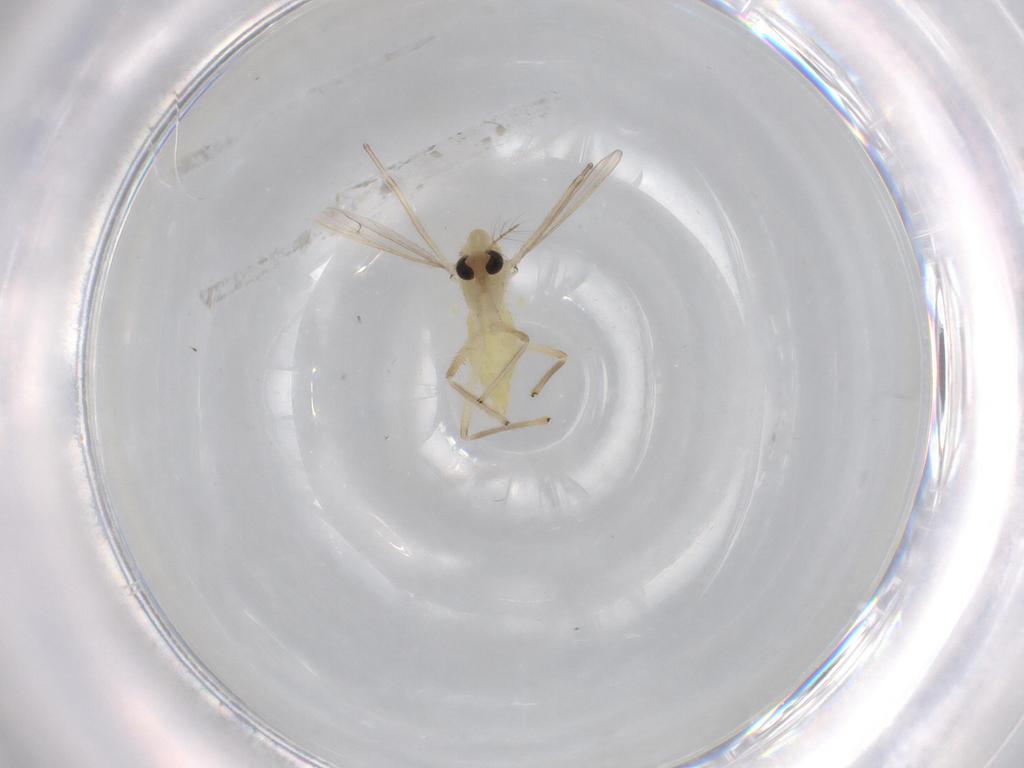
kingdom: Animalia
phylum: Arthropoda
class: Insecta
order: Diptera
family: Chironomidae
